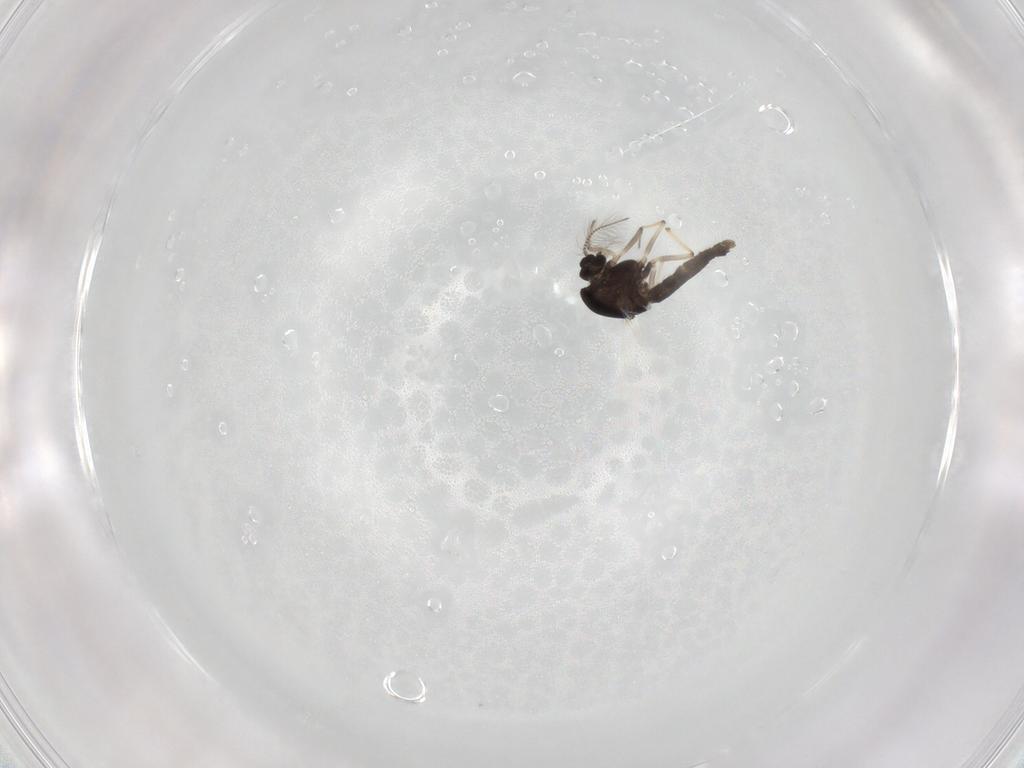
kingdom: Animalia
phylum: Arthropoda
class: Insecta
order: Diptera
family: Chironomidae
